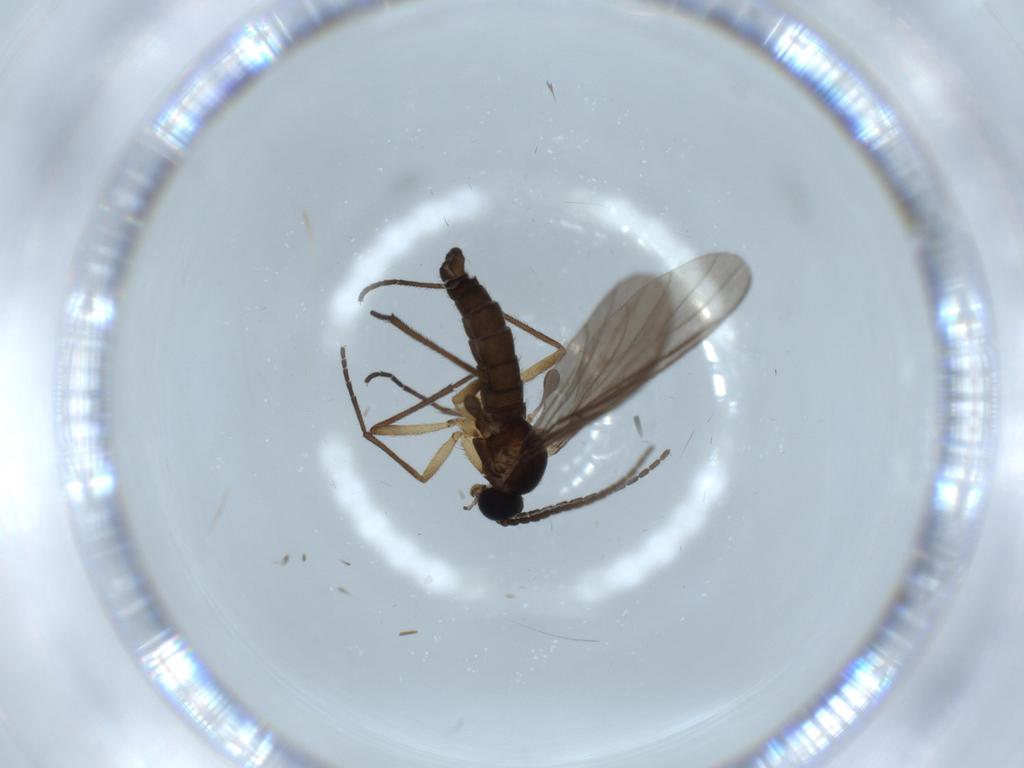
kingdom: Animalia
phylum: Arthropoda
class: Insecta
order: Diptera
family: Sciaridae
